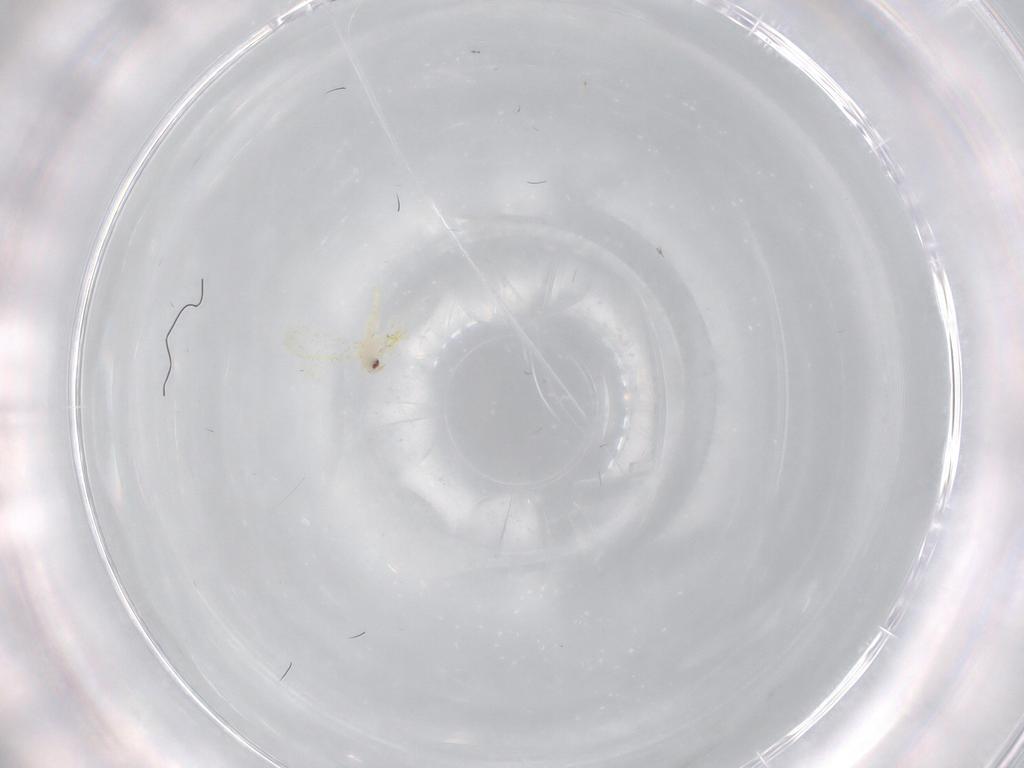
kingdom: Animalia
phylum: Arthropoda
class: Insecta
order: Hemiptera
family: Aleyrodidae
